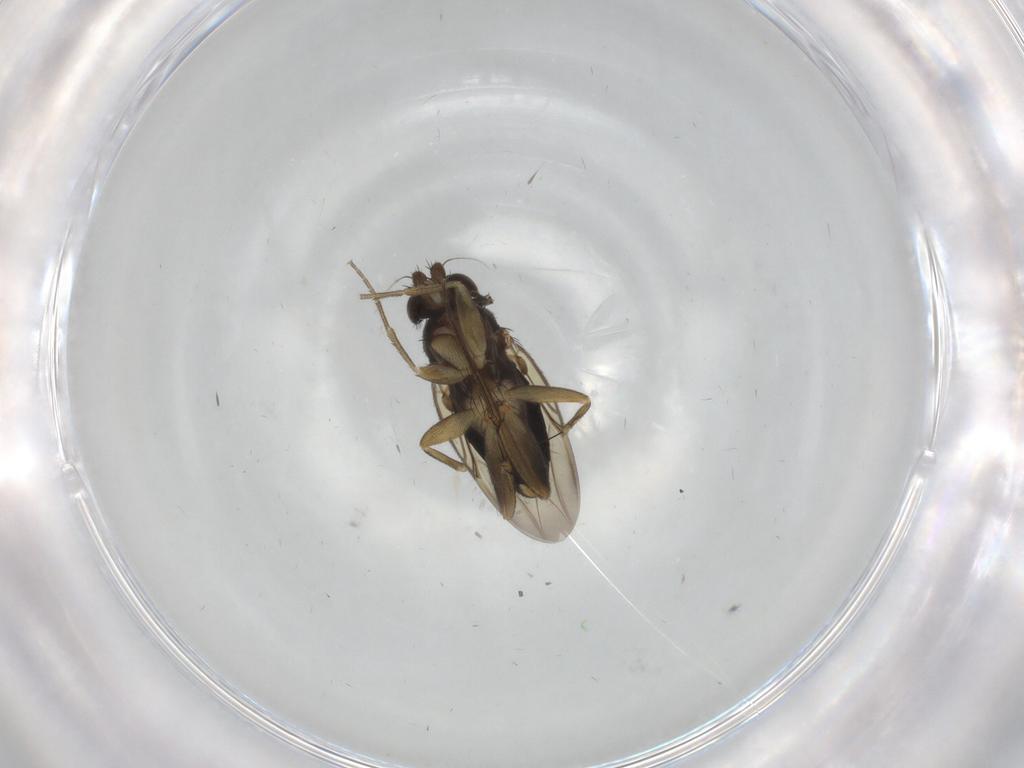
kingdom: Animalia
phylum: Arthropoda
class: Insecta
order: Diptera
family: Phoridae
